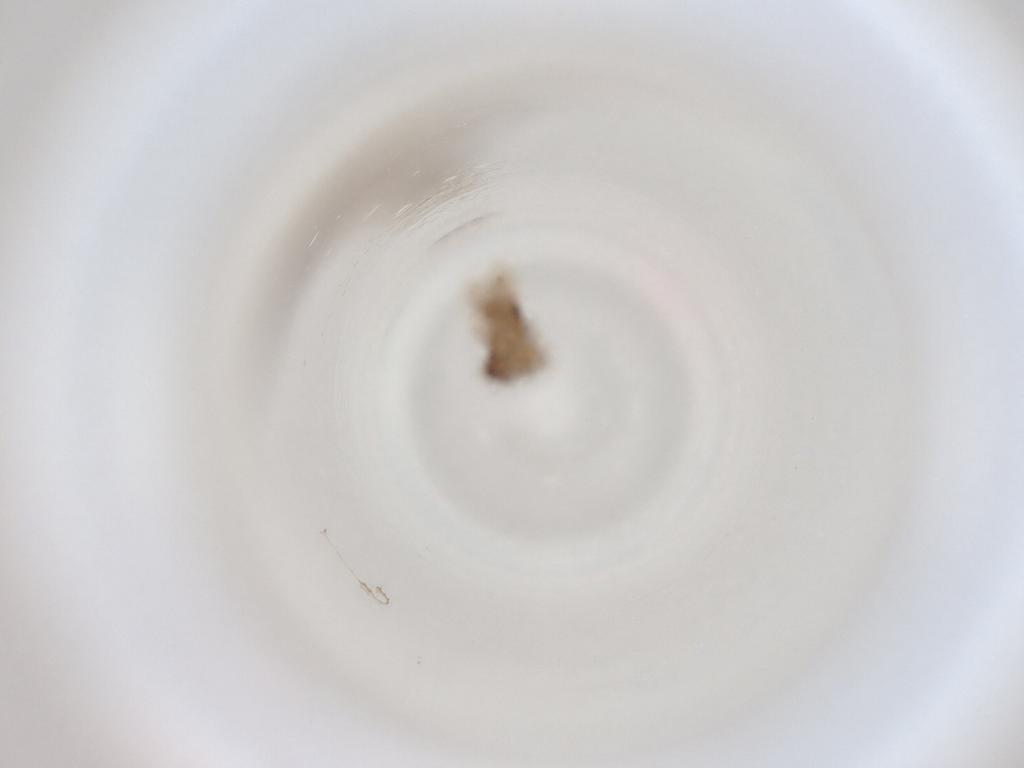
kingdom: Animalia
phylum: Arthropoda
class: Insecta
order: Diptera
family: Cecidomyiidae
